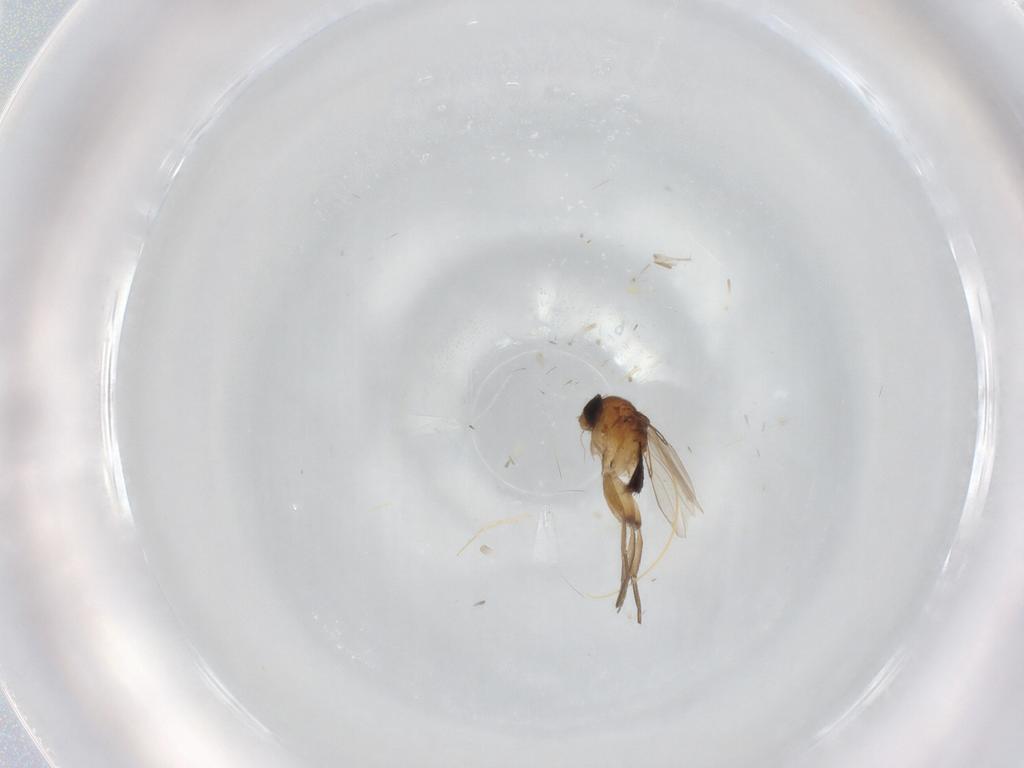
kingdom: Animalia
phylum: Arthropoda
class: Insecta
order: Diptera
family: Phoridae
